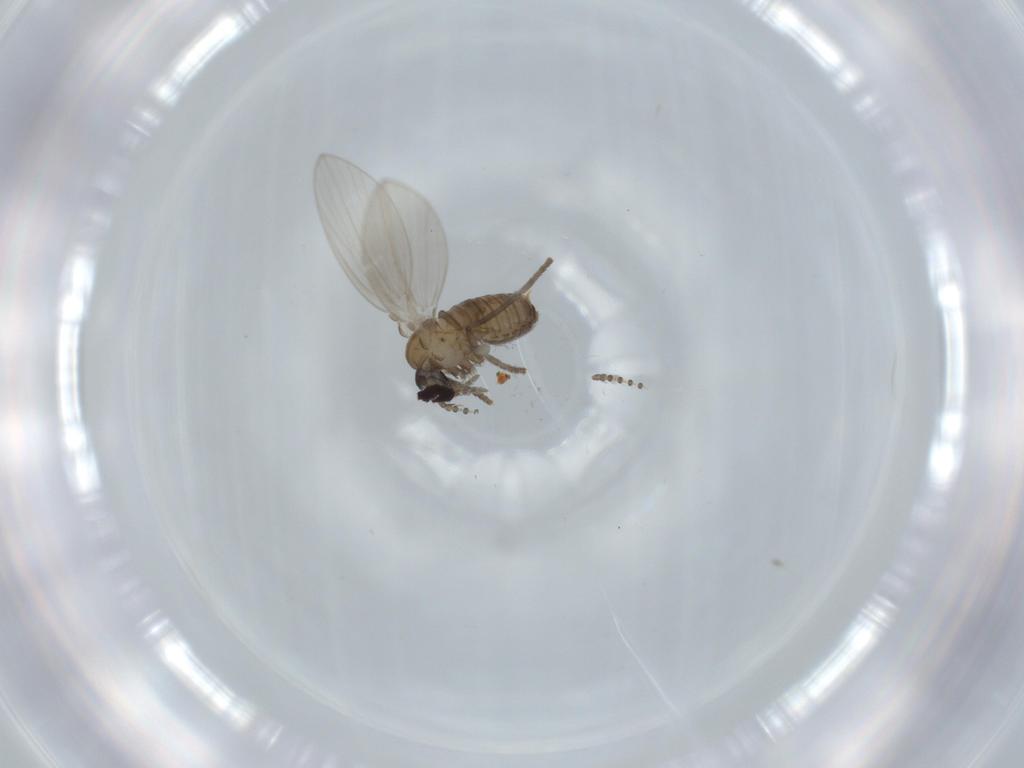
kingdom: Animalia
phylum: Arthropoda
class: Insecta
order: Diptera
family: Psychodidae
